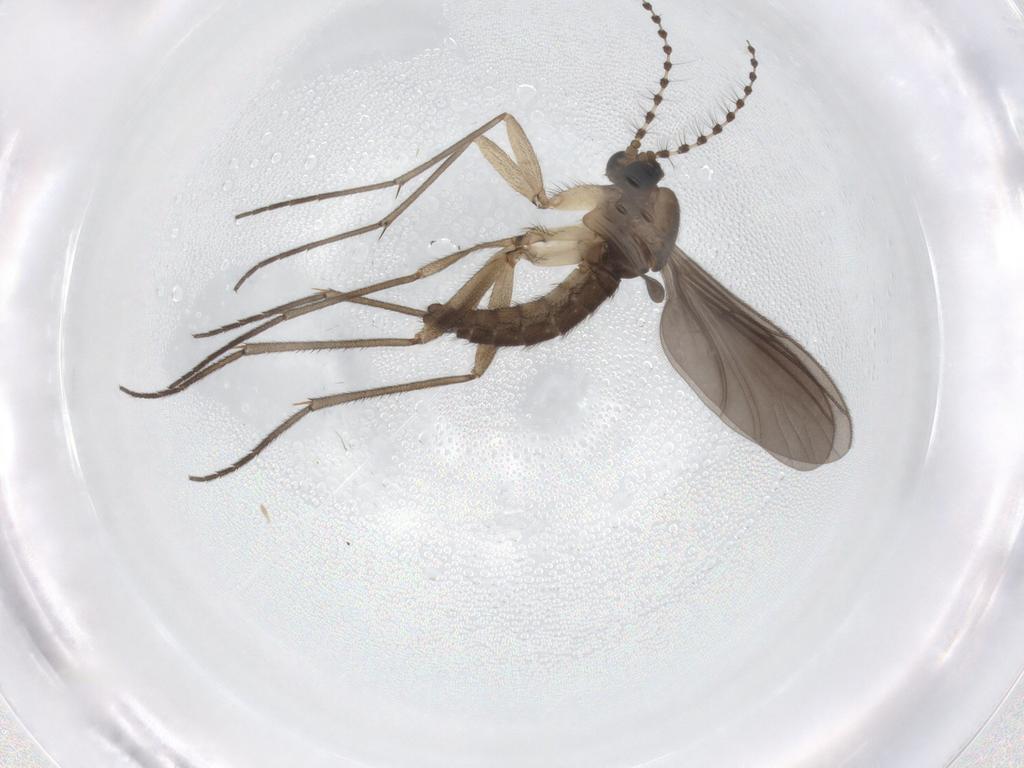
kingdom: Animalia
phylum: Arthropoda
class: Insecta
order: Diptera
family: Sciaridae
